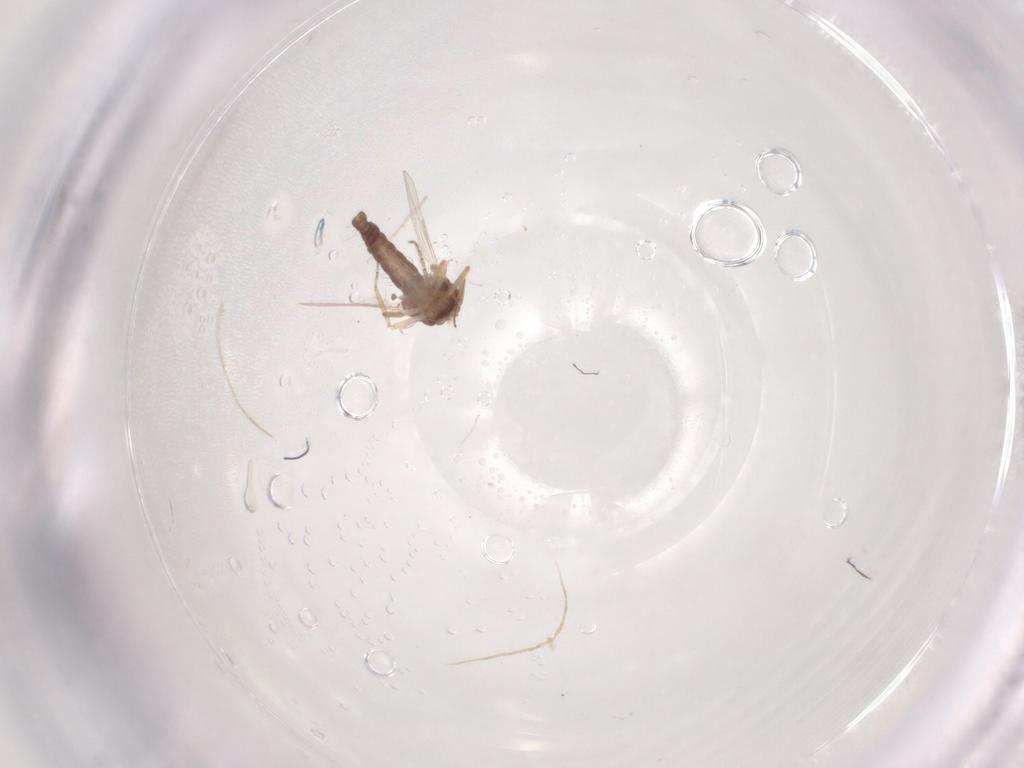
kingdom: Animalia
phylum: Arthropoda
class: Insecta
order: Diptera
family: Ceratopogonidae
